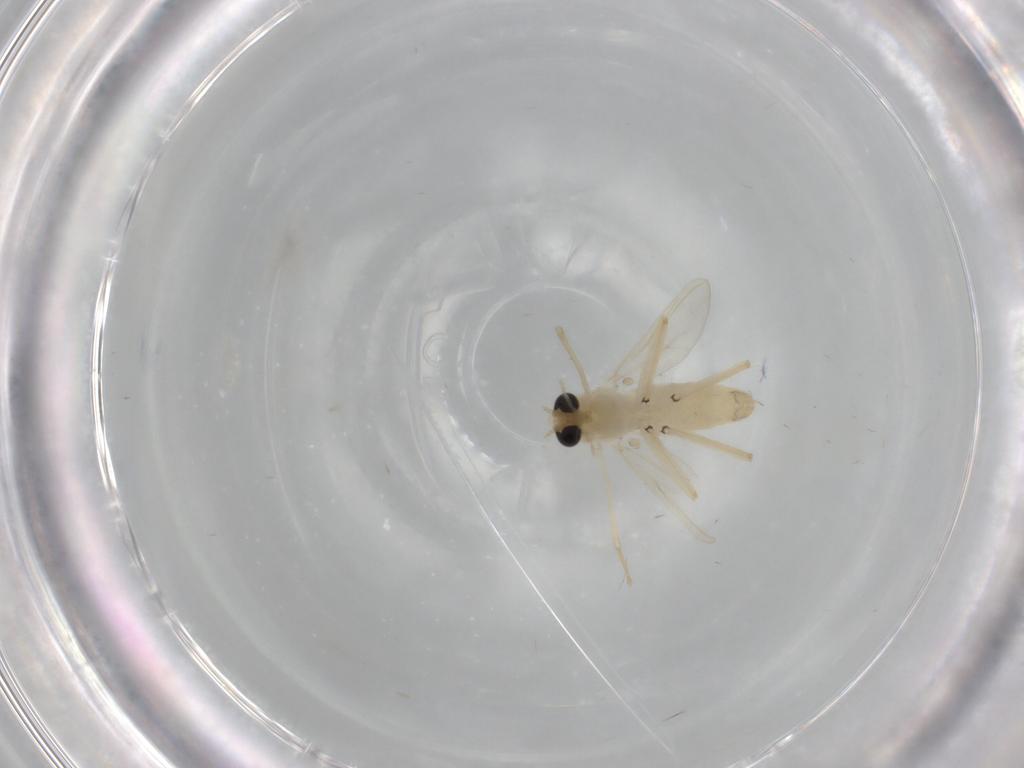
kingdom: Animalia
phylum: Arthropoda
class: Insecta
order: Diptera
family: Chironomidae
